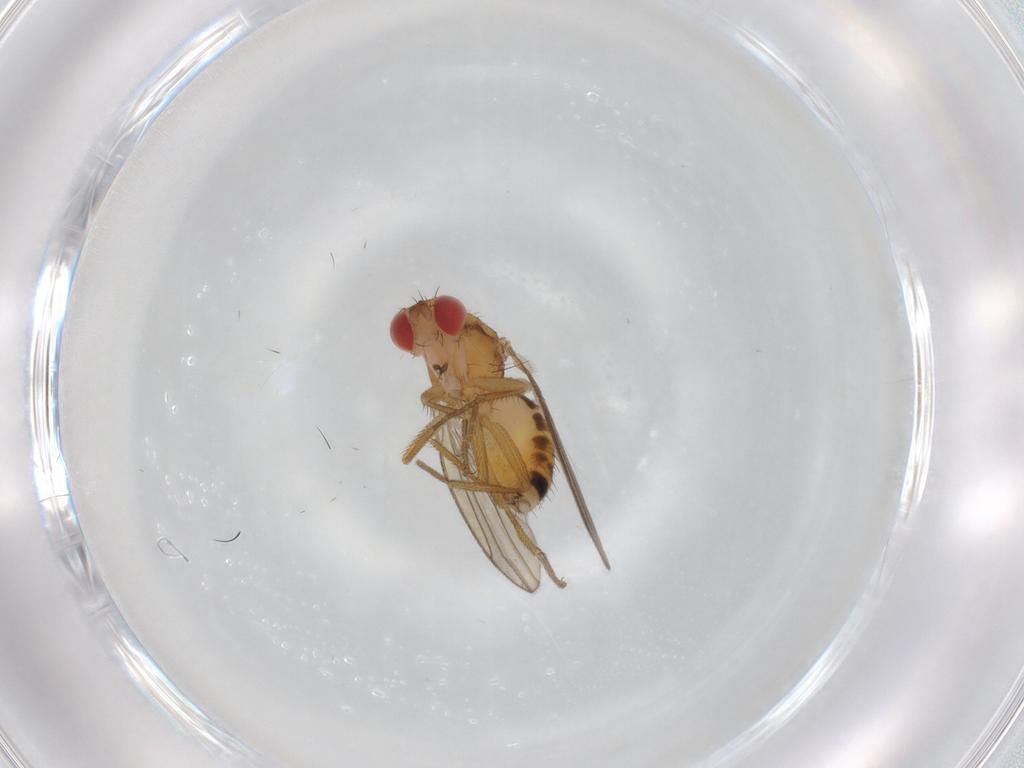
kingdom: Animalia
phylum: Arthropoda
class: Insecta
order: Diptera
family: Drosophilidae
